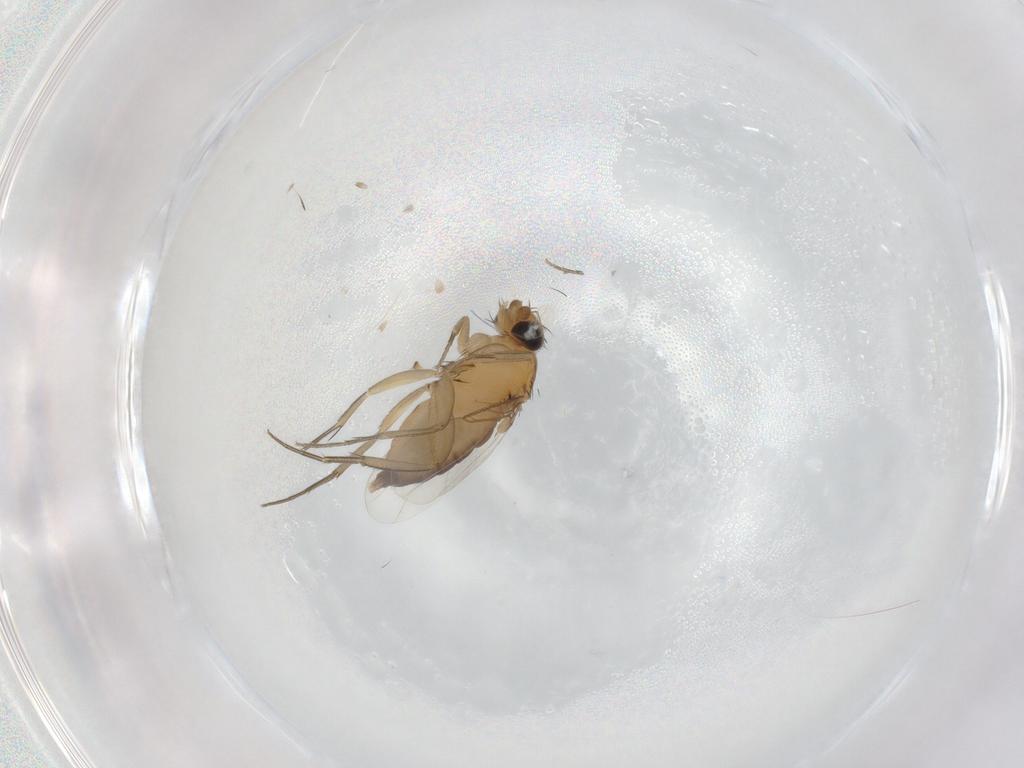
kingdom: Animalia
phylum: Arthropoda
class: Insecta
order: Diptera
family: Phoridae
